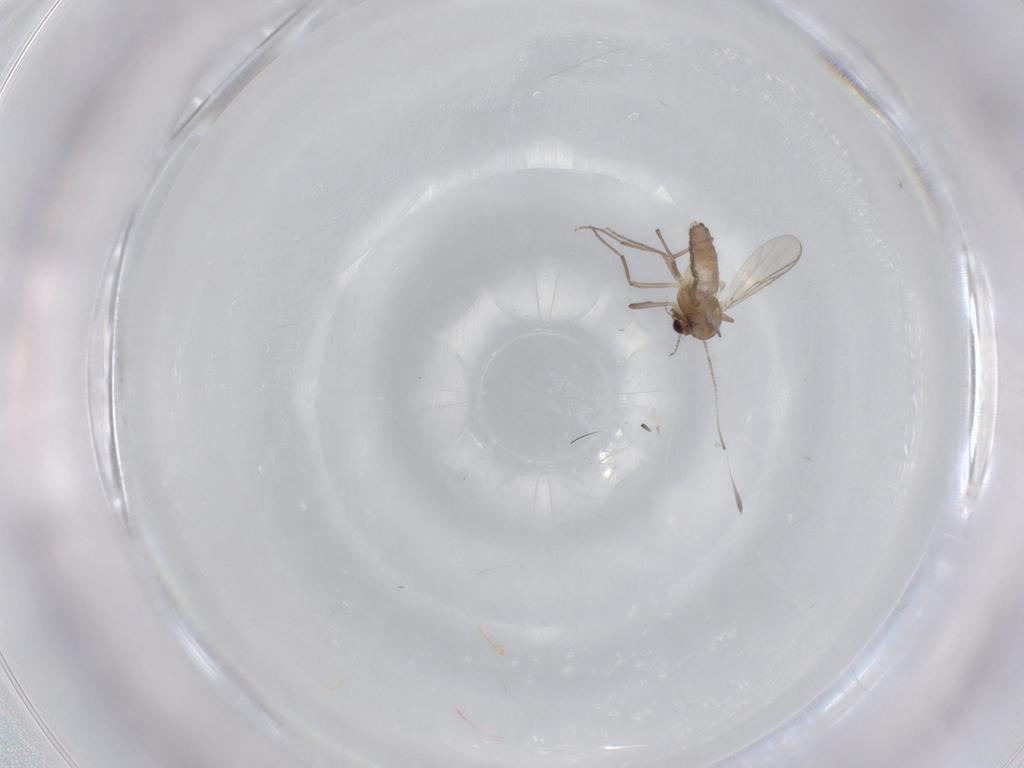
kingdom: Animalia
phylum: Arthropoda
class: Insecta
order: Diptera
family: Chironomidae
